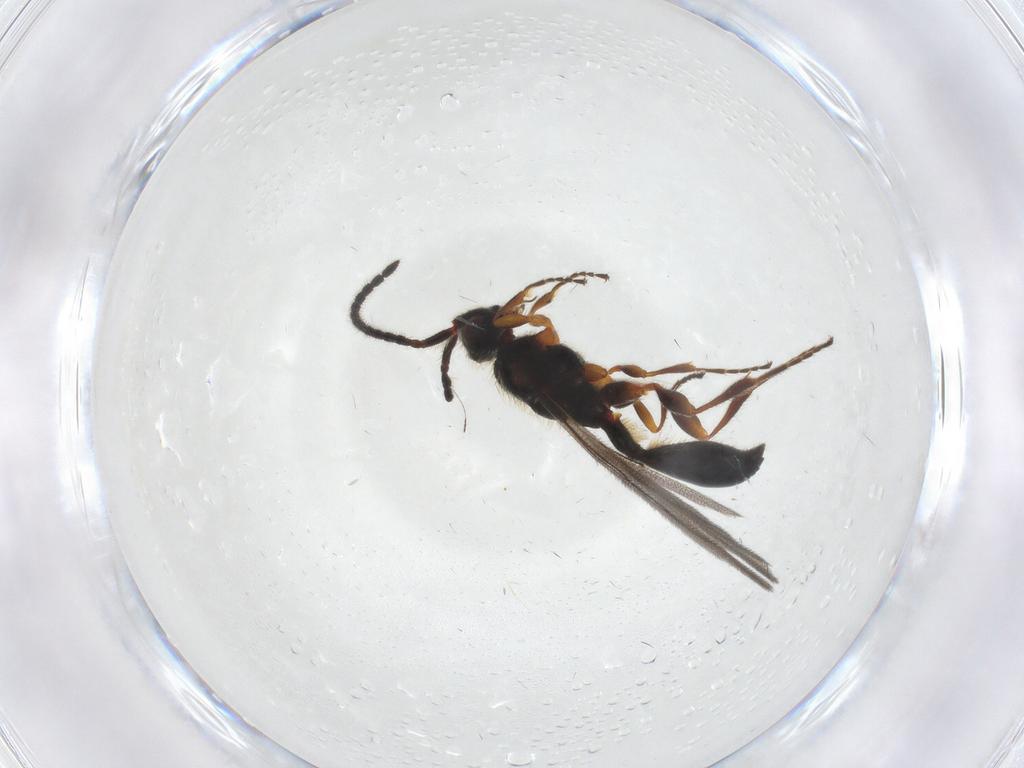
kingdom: Animalia
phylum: Arthropoda
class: Insecta
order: Hymenoptera
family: Diapriidae
